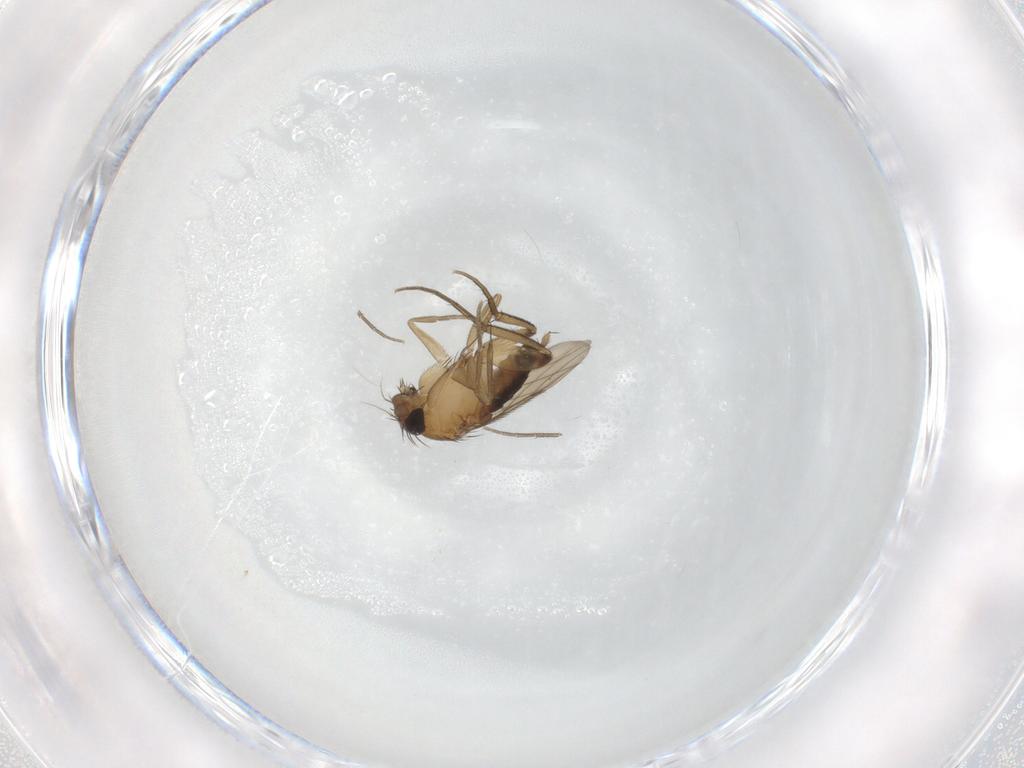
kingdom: Animalia
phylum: Arthropoda
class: Insecta
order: Diptera
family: Phoridae
